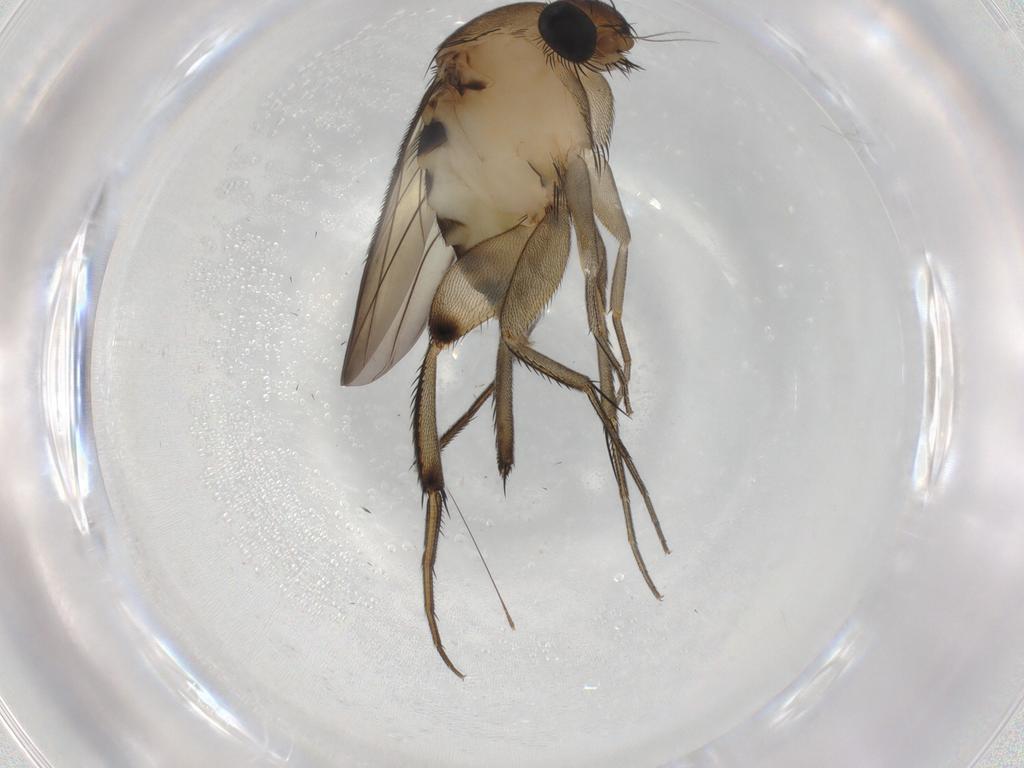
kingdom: Animalia
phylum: Arthropoda
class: Insecta
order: Diptera
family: Phoridae
